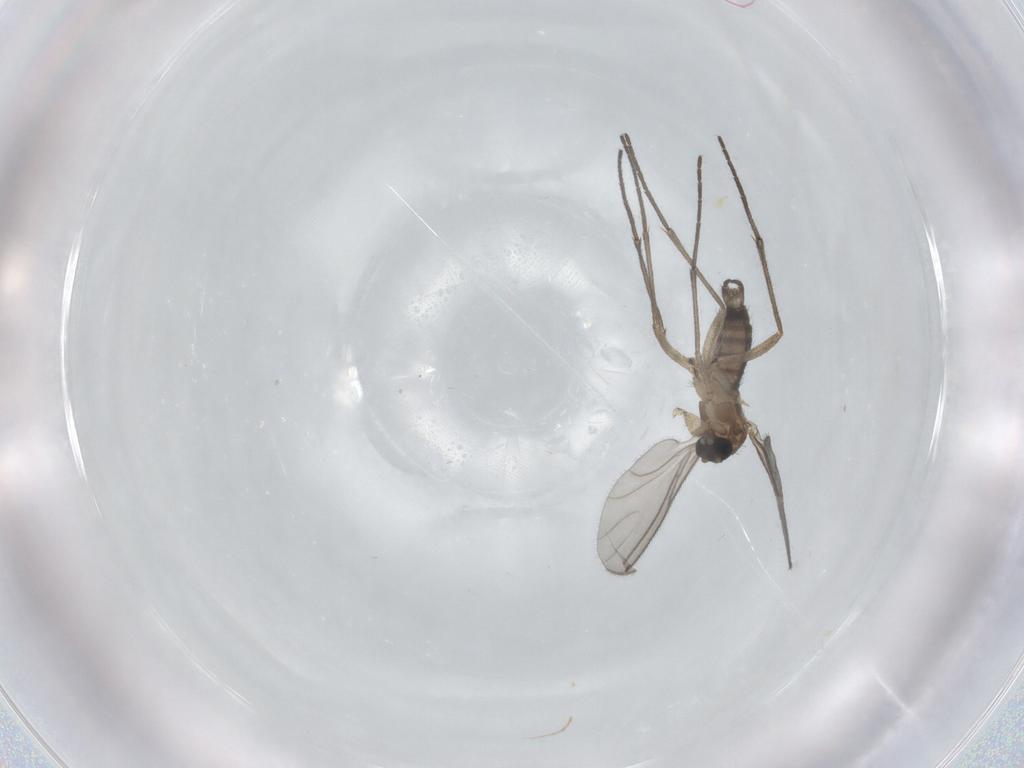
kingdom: Animalia
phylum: Arthropoda
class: Insecta
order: Diptera
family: Sciaridae
